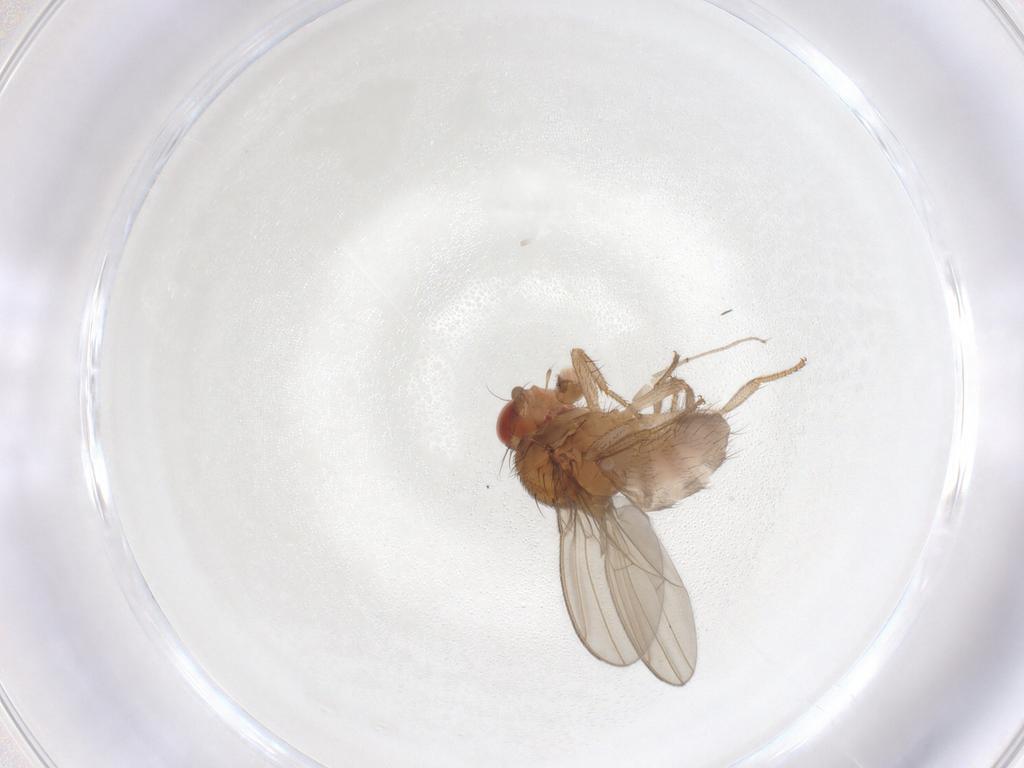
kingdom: Animalia
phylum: Arthropoda
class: Insecta
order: Diptera
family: Drosophilidae
